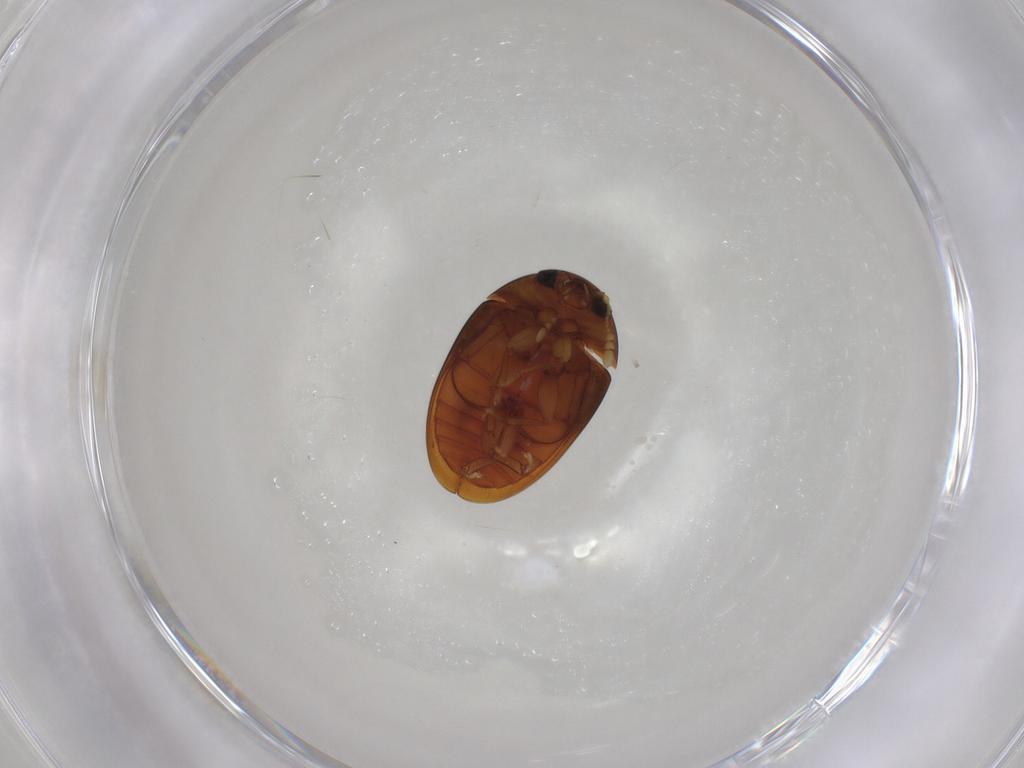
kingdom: Animalia
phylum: Arthropoda
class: Insecta
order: Coleoptera
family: Phalacridae
